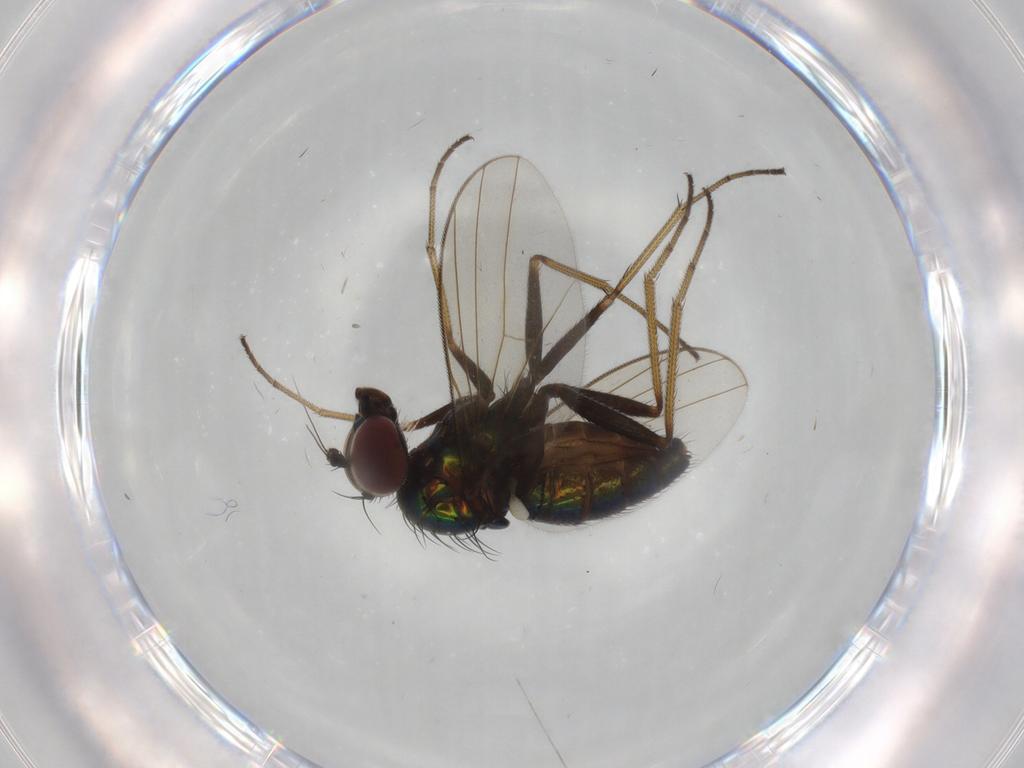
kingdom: Animalia
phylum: Arthropoda
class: Insecta
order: Diptera
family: Dolichopodidae
